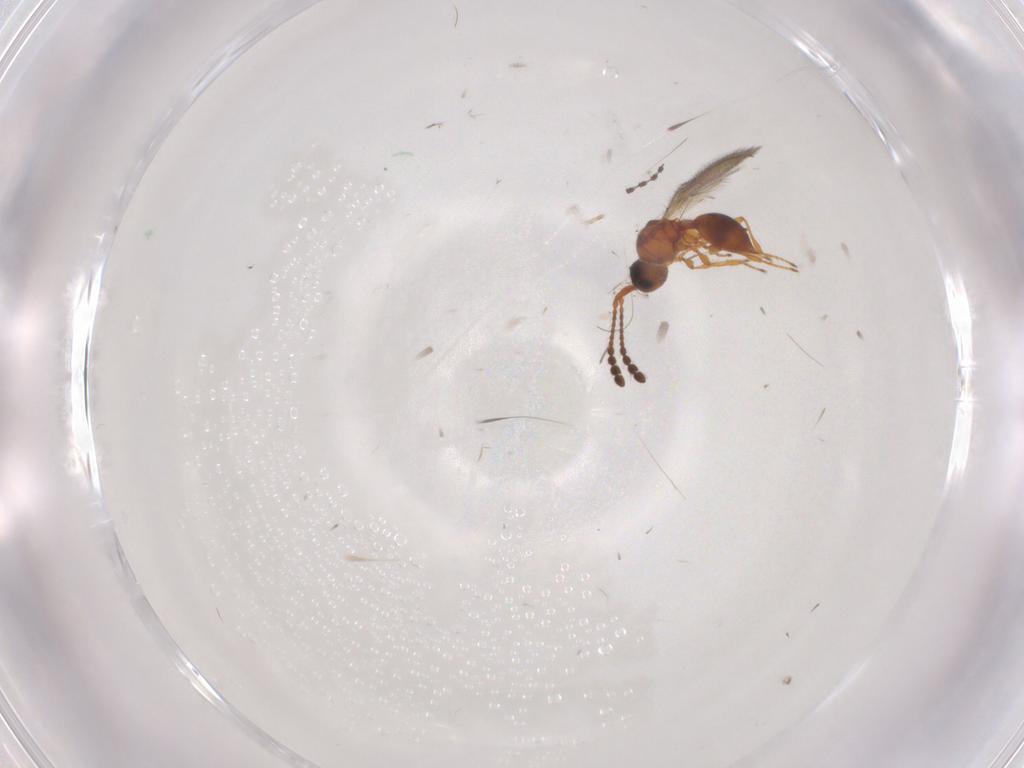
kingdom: Animalia
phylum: Arthropoda
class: Insecta
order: Hymenoptera
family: Diapriidae
